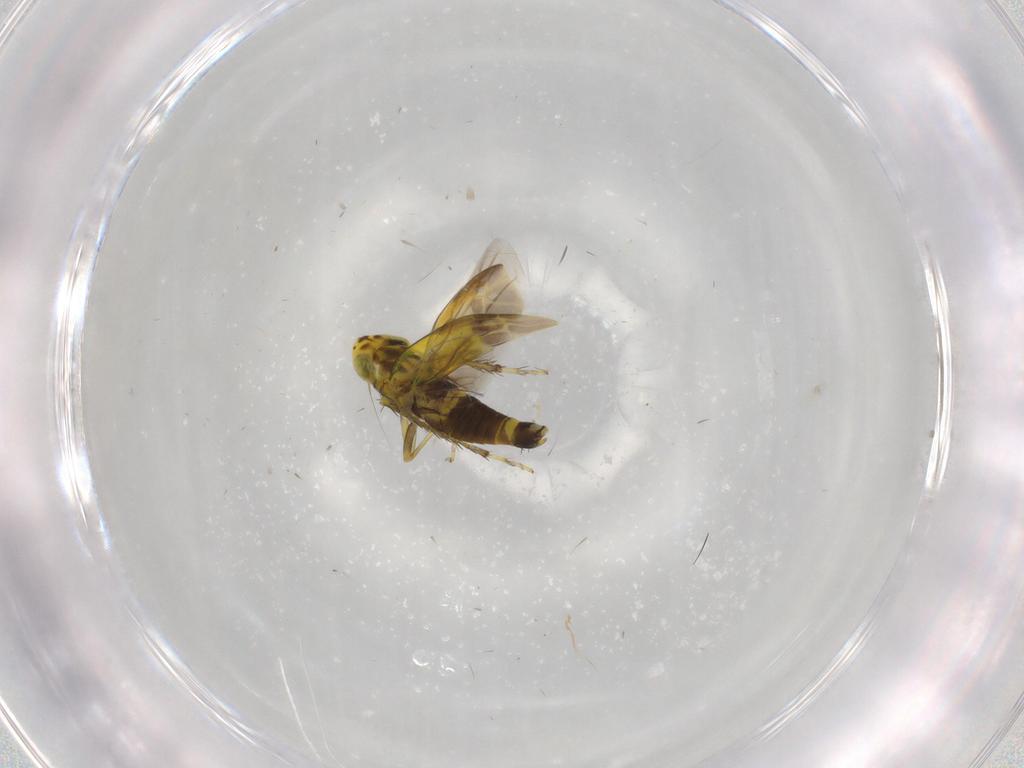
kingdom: Animalia
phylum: Arthropoda
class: Insecta
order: Hemiptera
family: Cicadellidae
